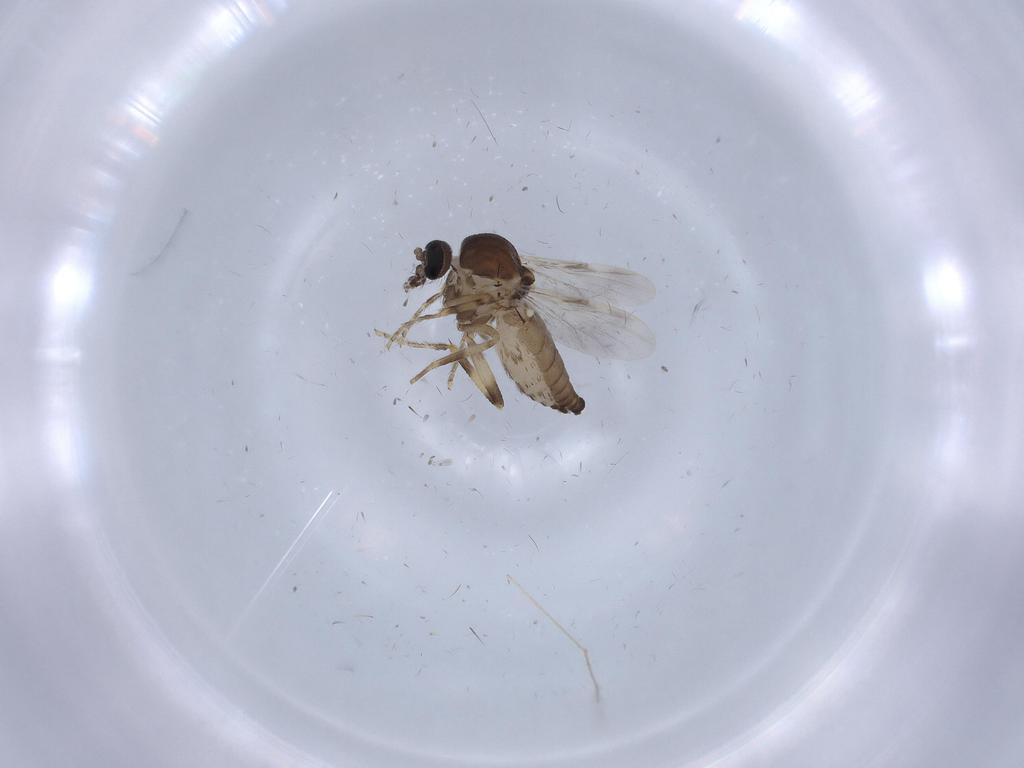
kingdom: Animalia
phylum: Arthropoda
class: Insecta
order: Diptera
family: Ceratopogonidae
